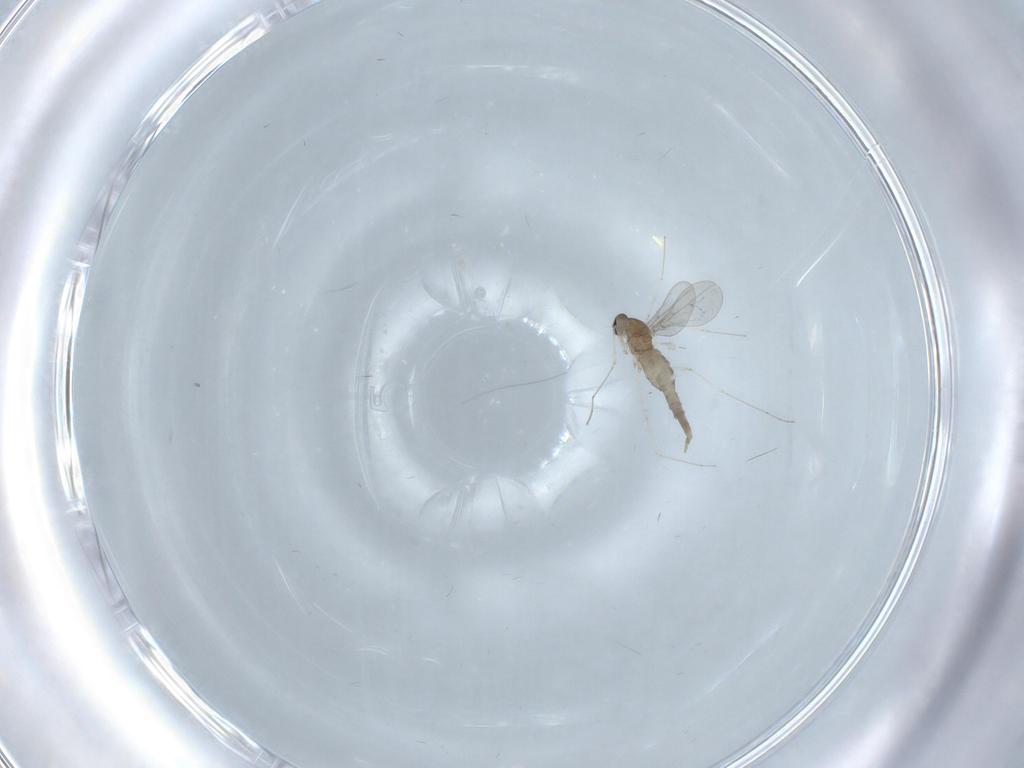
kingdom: Animalia
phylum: Arthropoda
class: Insecta
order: Diptera
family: Cecidomyiidae
